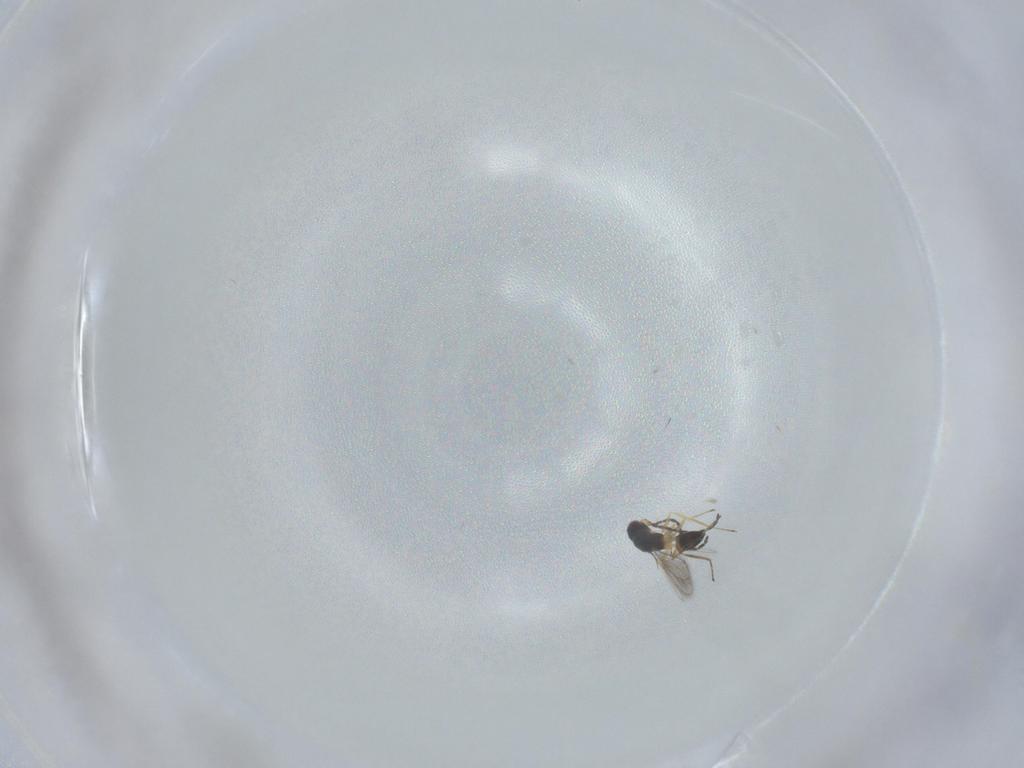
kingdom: Animalia
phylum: Arthropoda
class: Insecta
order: Hymenoptera
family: Mymaridae
